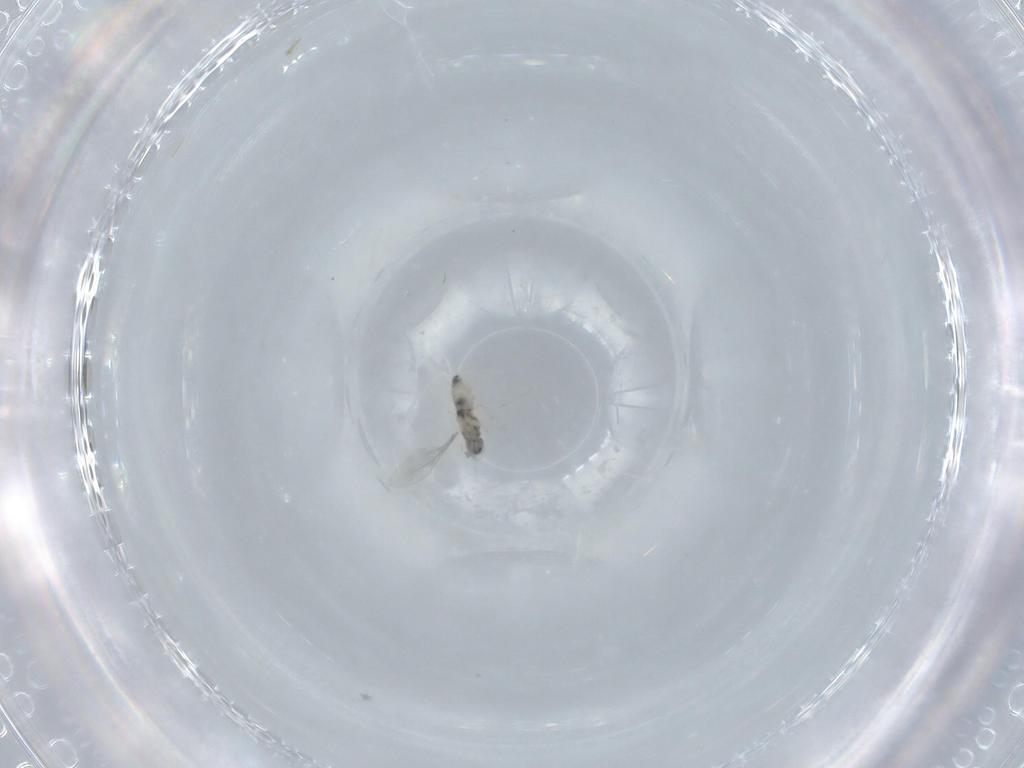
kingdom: Animalia
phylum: Arthropoda
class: Insecta
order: Diptera
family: Cecidomyiidae
